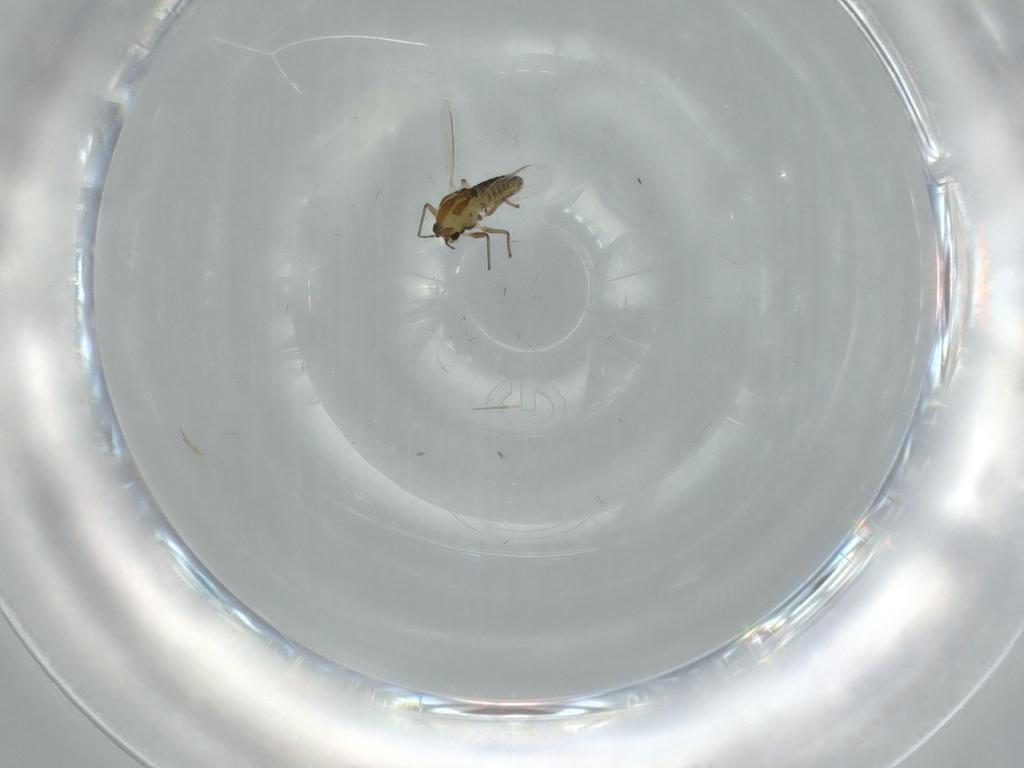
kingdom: Animalia
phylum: Arthropoda
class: Insecta
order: Diptera
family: Chironomidae
